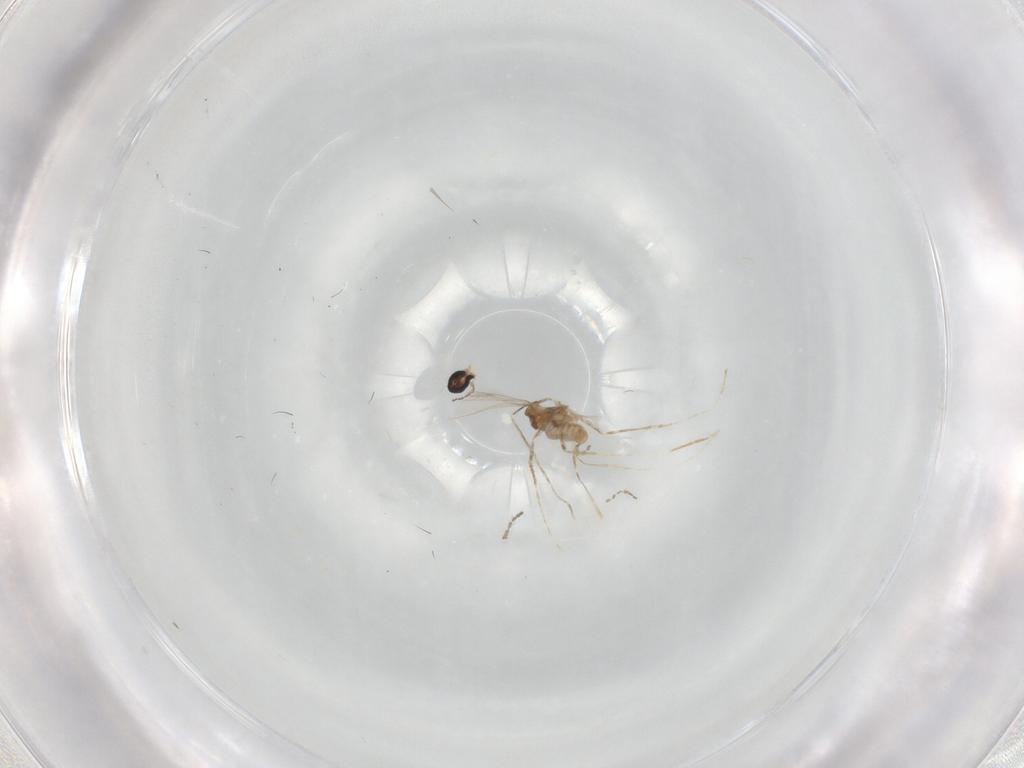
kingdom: Animalia
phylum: Arthropoda
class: Insecta
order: Diptera
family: Cecidomyiidae
